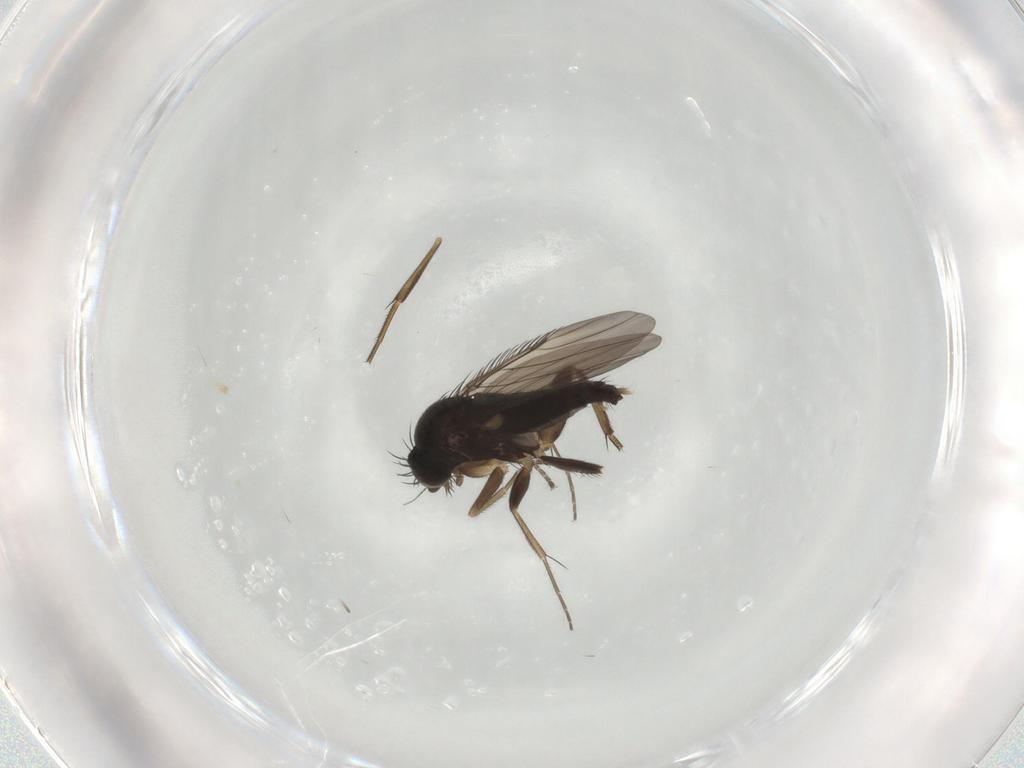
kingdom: Animalia
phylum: Arthropoda
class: Insecta
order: Diptera
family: Phoridae
